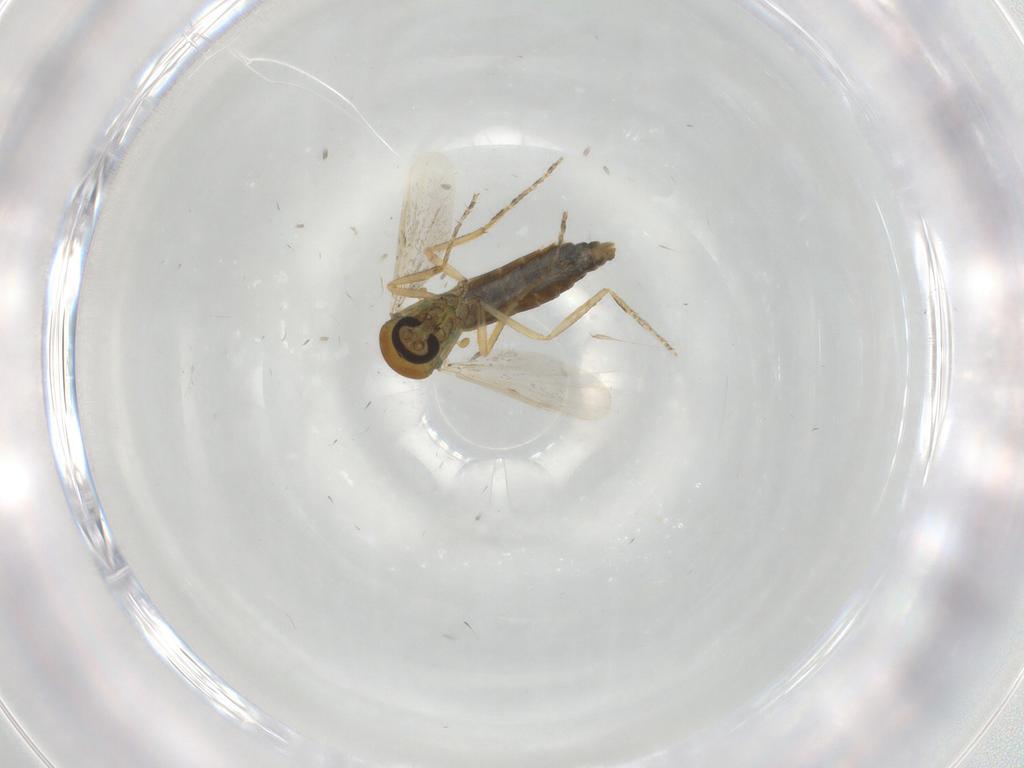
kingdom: Animalia
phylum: Arthropoda
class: Insecta
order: Diptera
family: Ceratopogonidae
